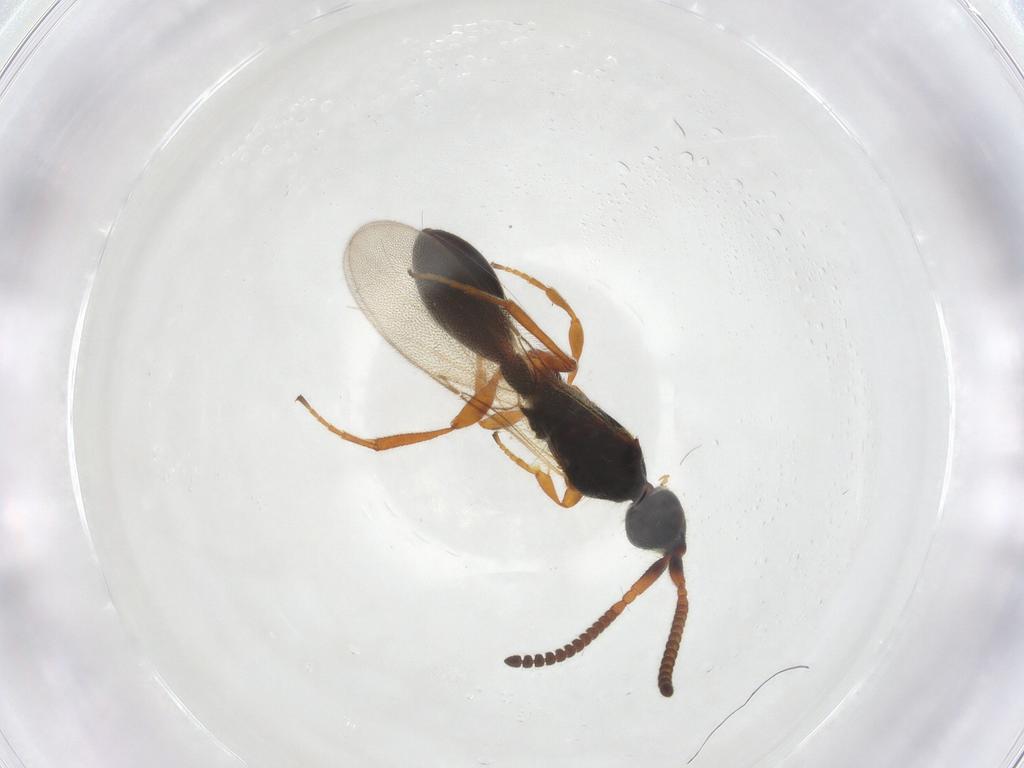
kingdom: Animalia
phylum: Arthropoda
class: Insecta
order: Hymenoptera
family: Diapriidae
